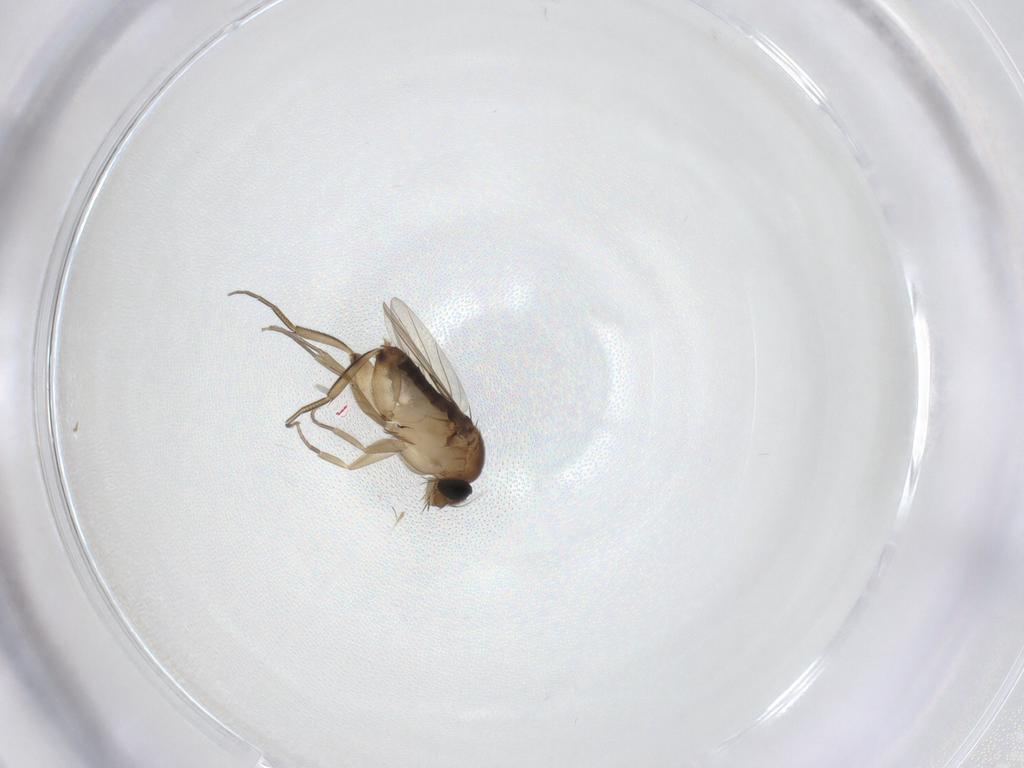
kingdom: Animalia
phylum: Arthropoda
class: Insecta
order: Diptera
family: Phoridae
